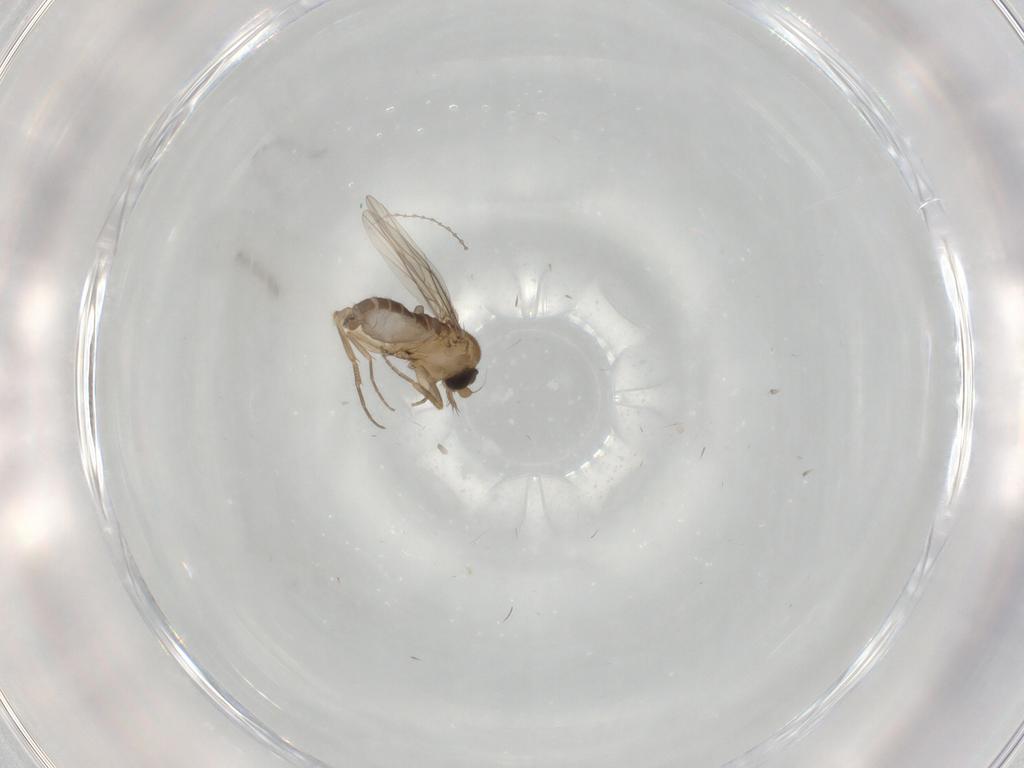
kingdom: Animalia
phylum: Arthropoda
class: Insecta
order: Diptera
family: Phoridae
